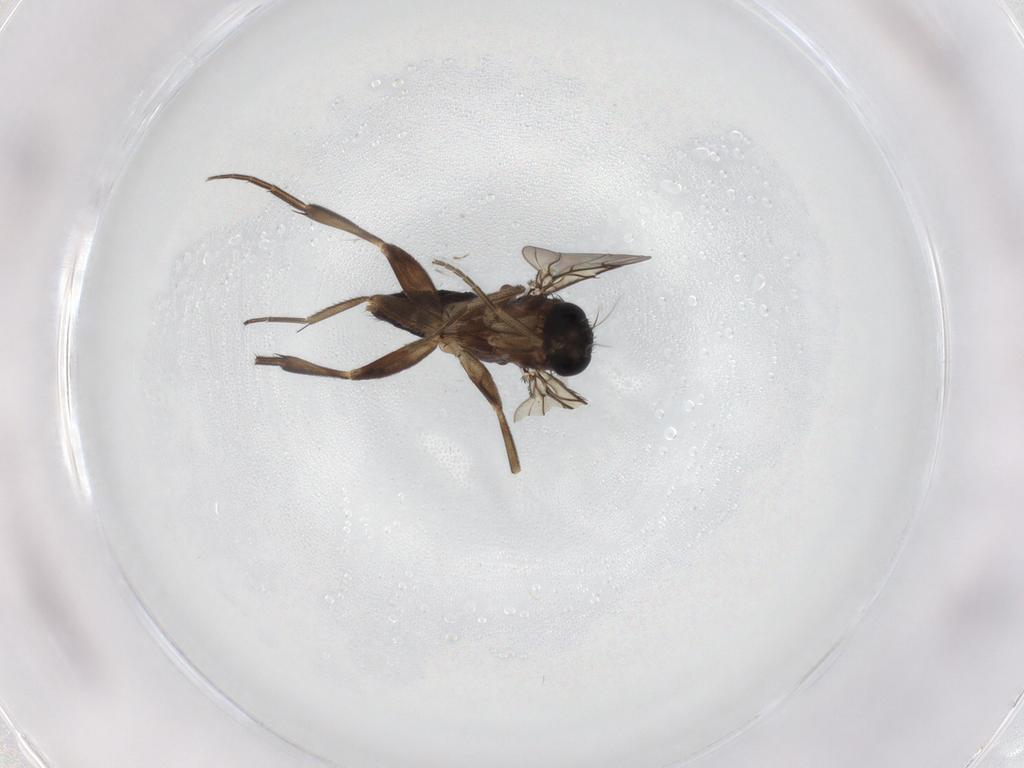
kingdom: Animalia
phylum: Arthropoda
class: Insecta
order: Diptera
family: Phoridae
